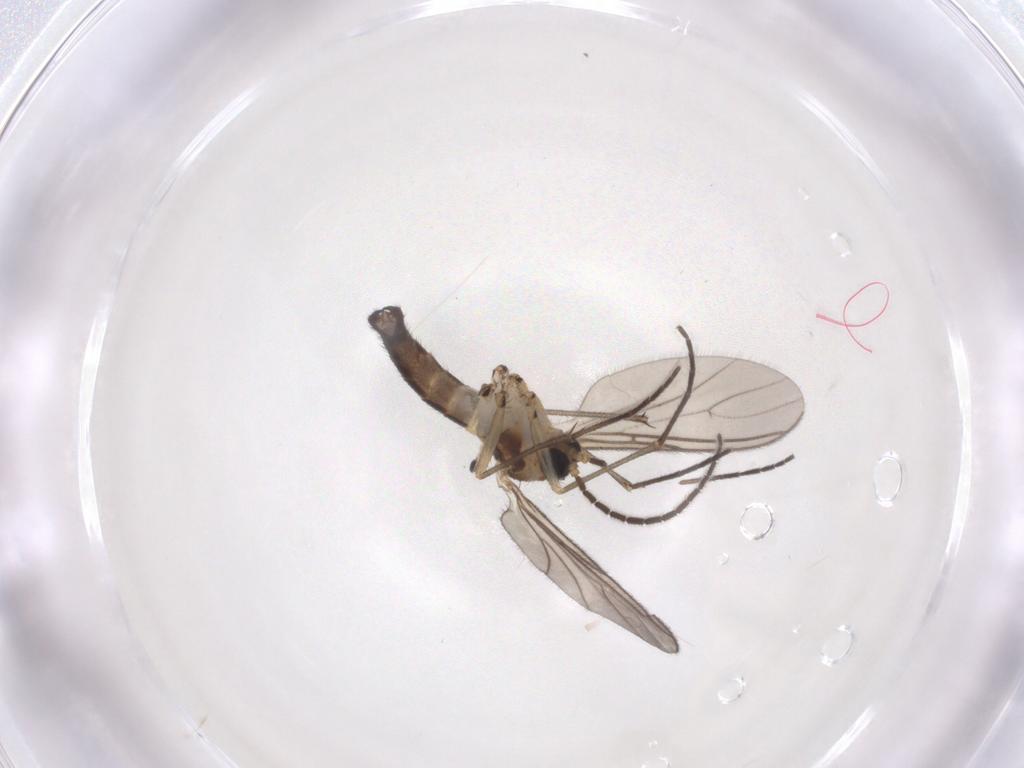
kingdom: Animalia
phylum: Arthropoda
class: Insecta
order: Diptera
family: Sciaridae
